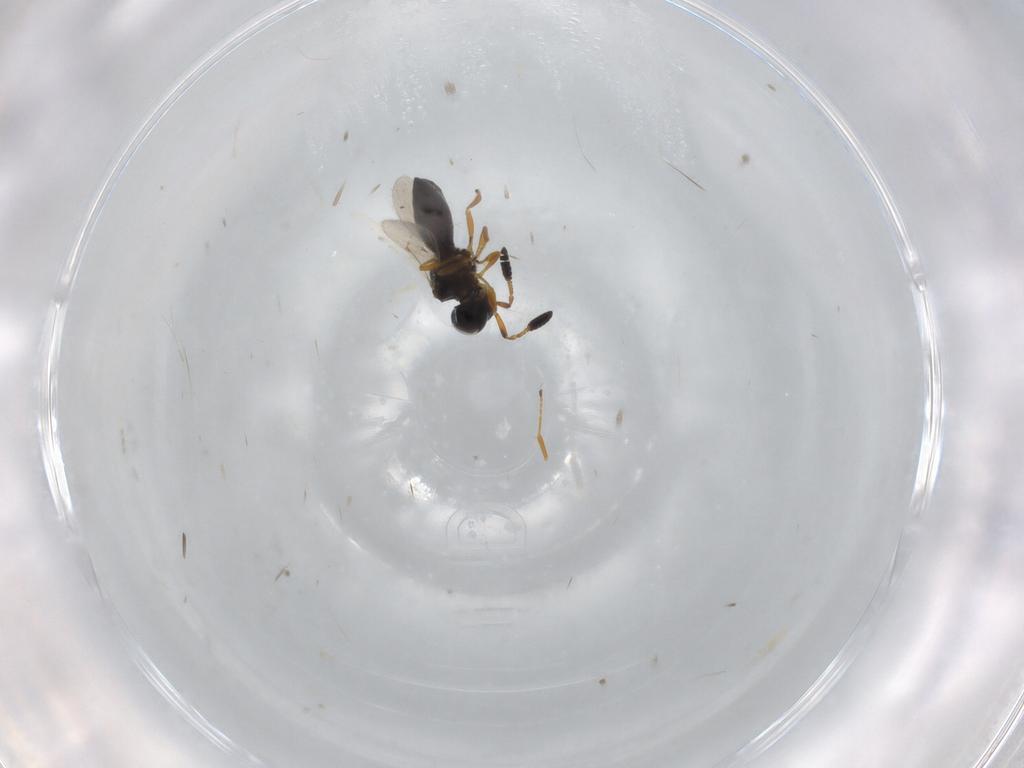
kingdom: Animalia
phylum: Arthropoda
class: Insecta
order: Hymenoptera
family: Scelionidae
